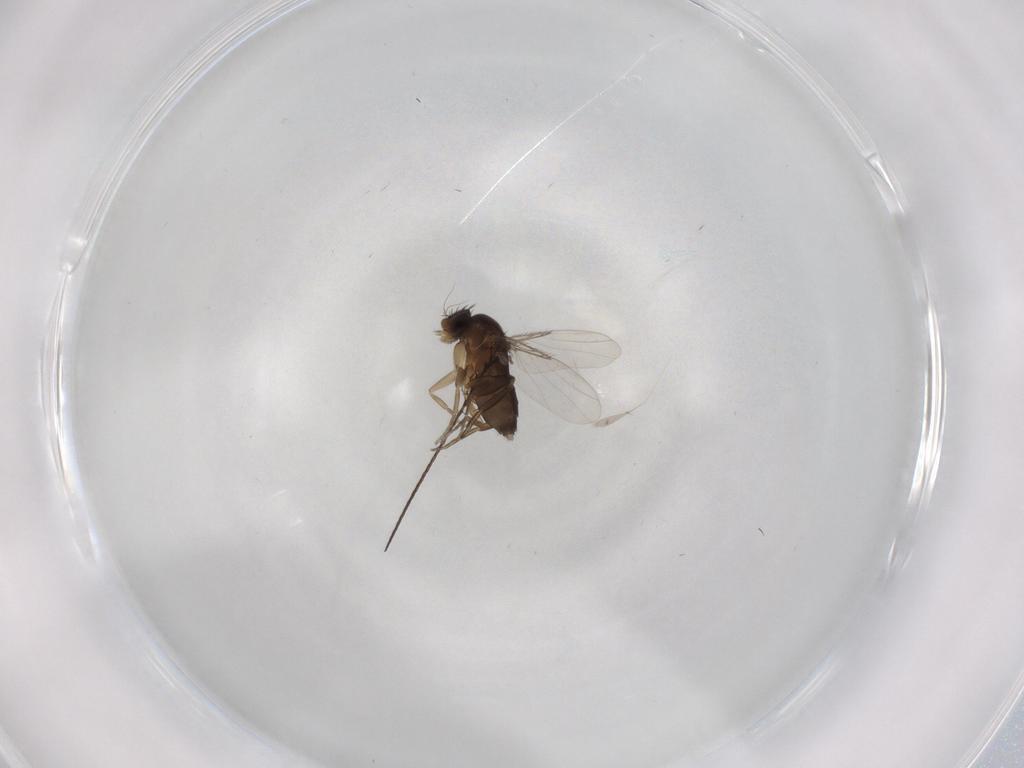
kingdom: Animalia
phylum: Arthropoda
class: Insecta
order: Diptera
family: Phoridae
